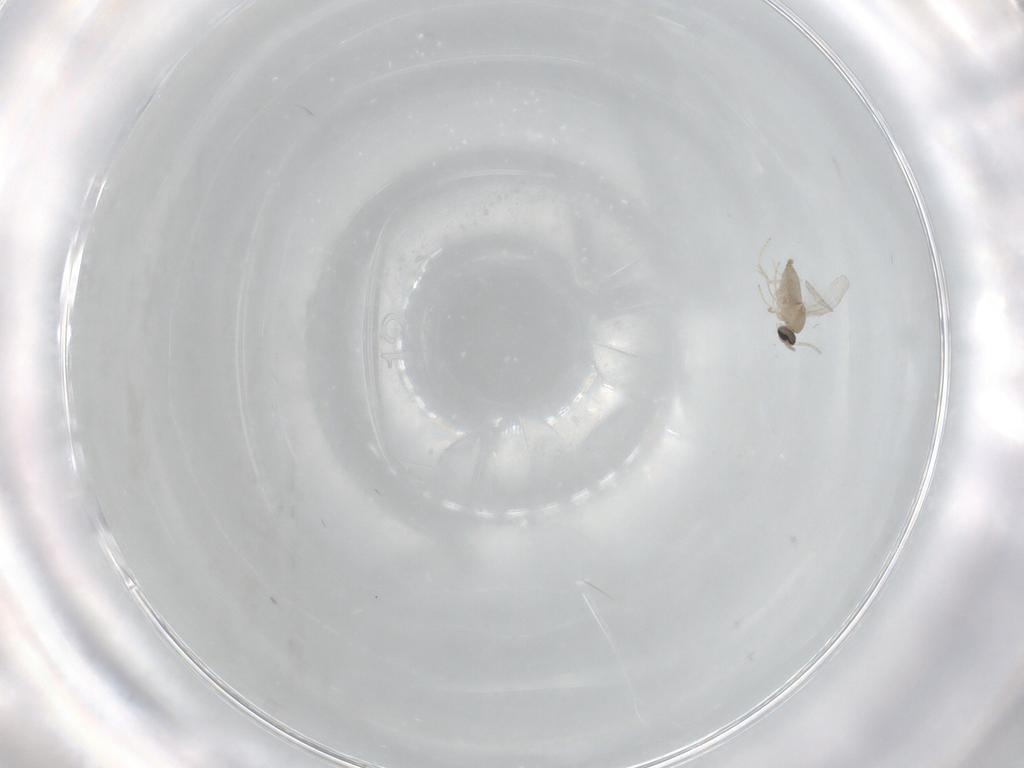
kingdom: Animalia
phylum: Arthropoda
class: Insecta
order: Diptera
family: Cecidomyiidae
